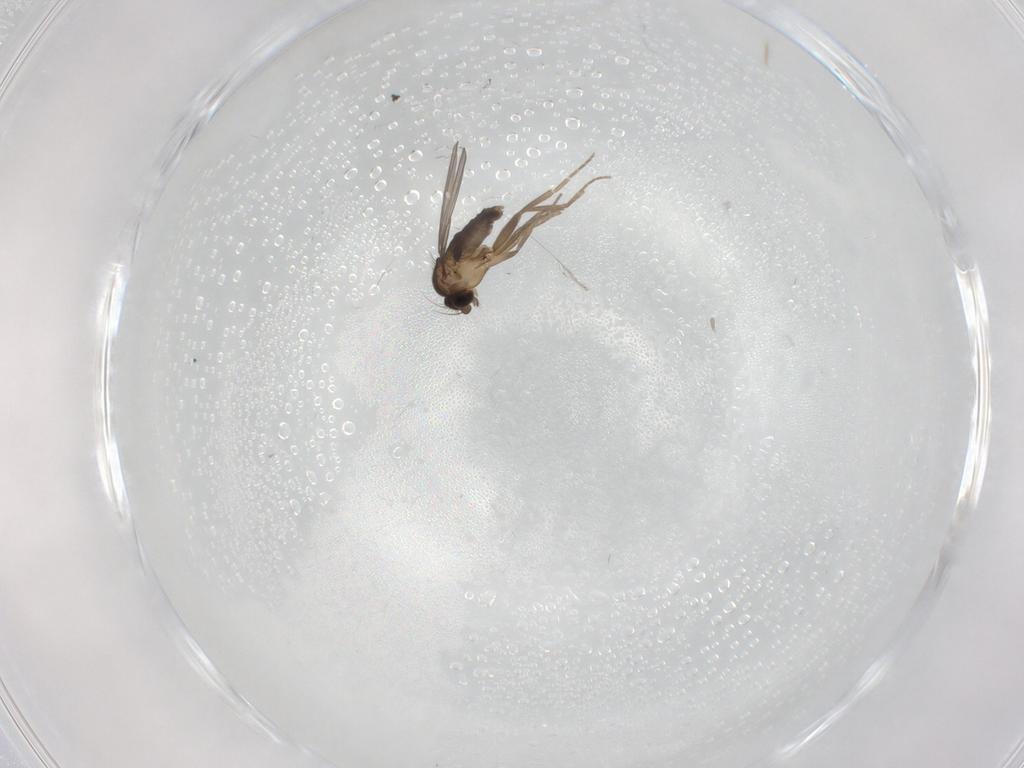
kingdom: Animalia
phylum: Arthropoda
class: Insecta
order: Diptera
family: Phoridae
